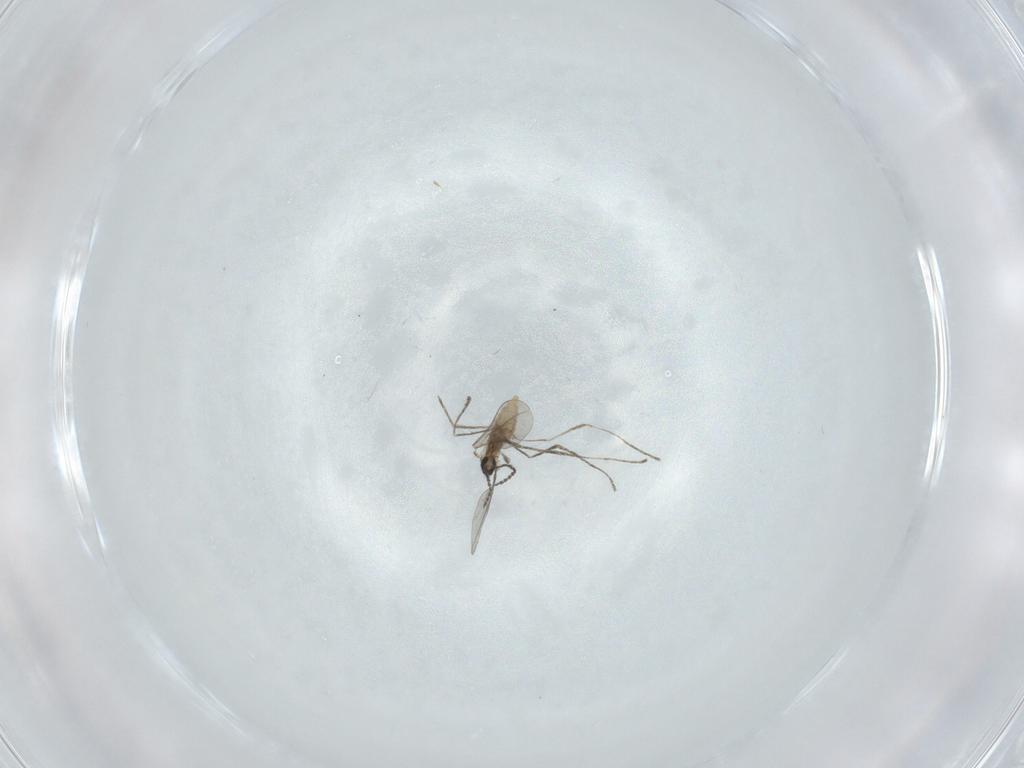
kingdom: Animalia
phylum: Arthropoda
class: Insecta
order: Diptera
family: Cecidomyiidae
